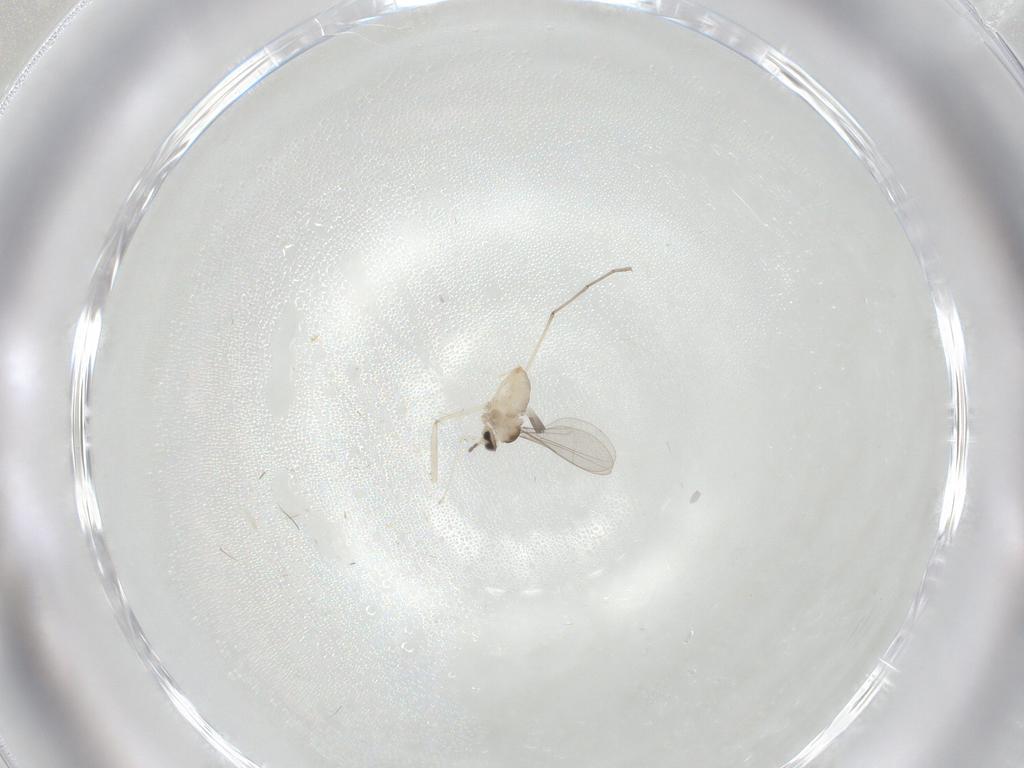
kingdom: Animalia
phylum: Arthropoda
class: Insecta
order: Diptera
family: Cecidomyiidae
